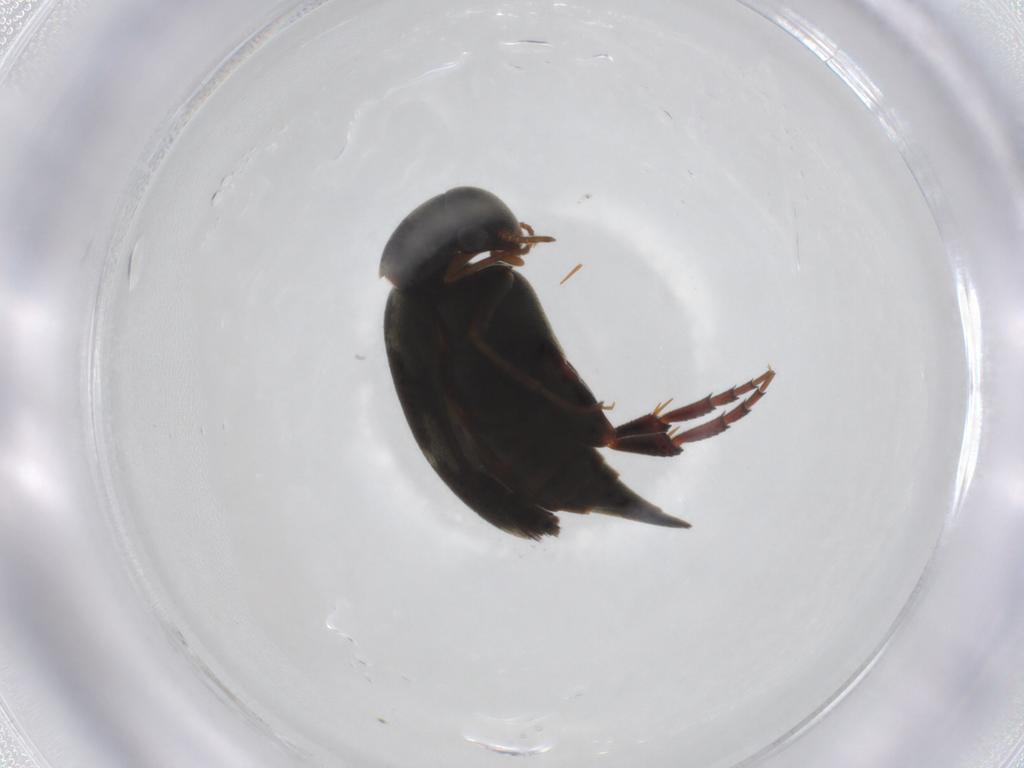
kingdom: Animalia
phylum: Arthropoda
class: Insecta
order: Coleoptera
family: Mordellidae
